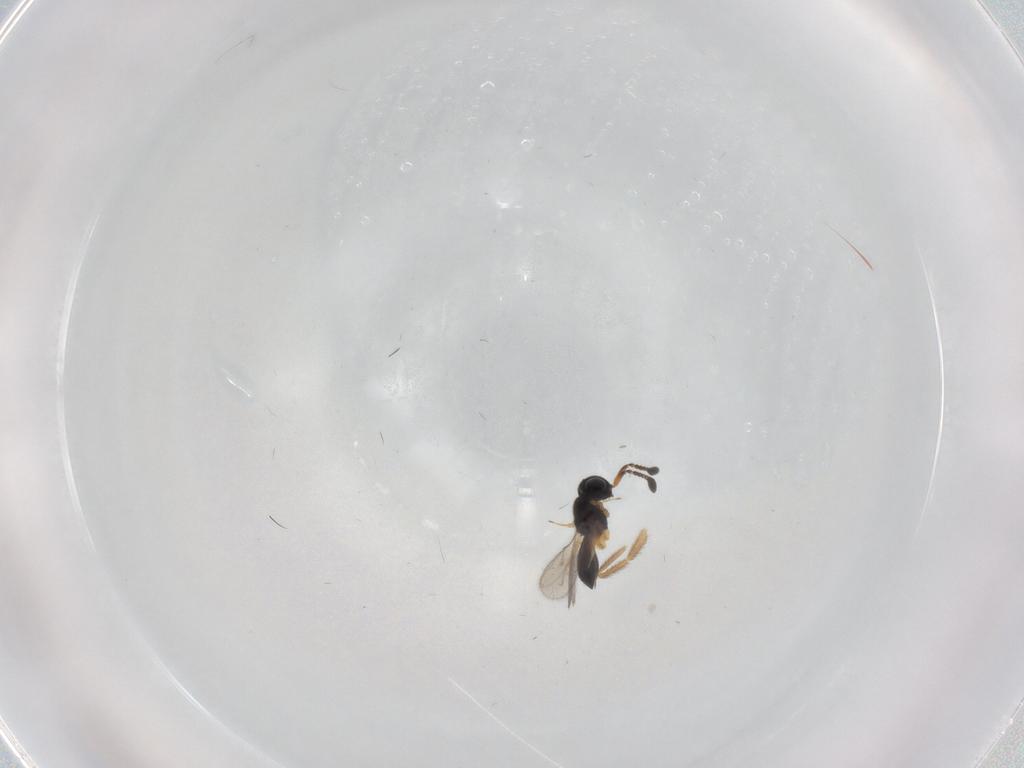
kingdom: Animalia
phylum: Arthropoda
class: Insecta
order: Hymenoptera
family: Scelionidae
